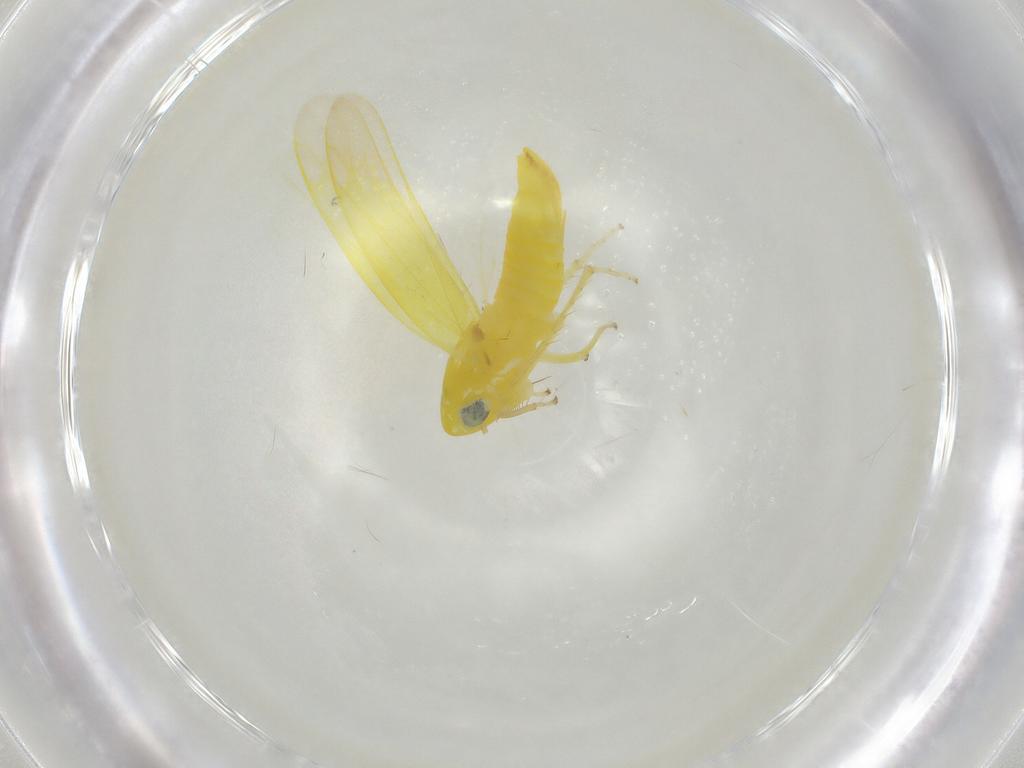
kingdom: Animalia
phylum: Arthropoda
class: Insecta
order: Hemiptera
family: Cicadellidae
